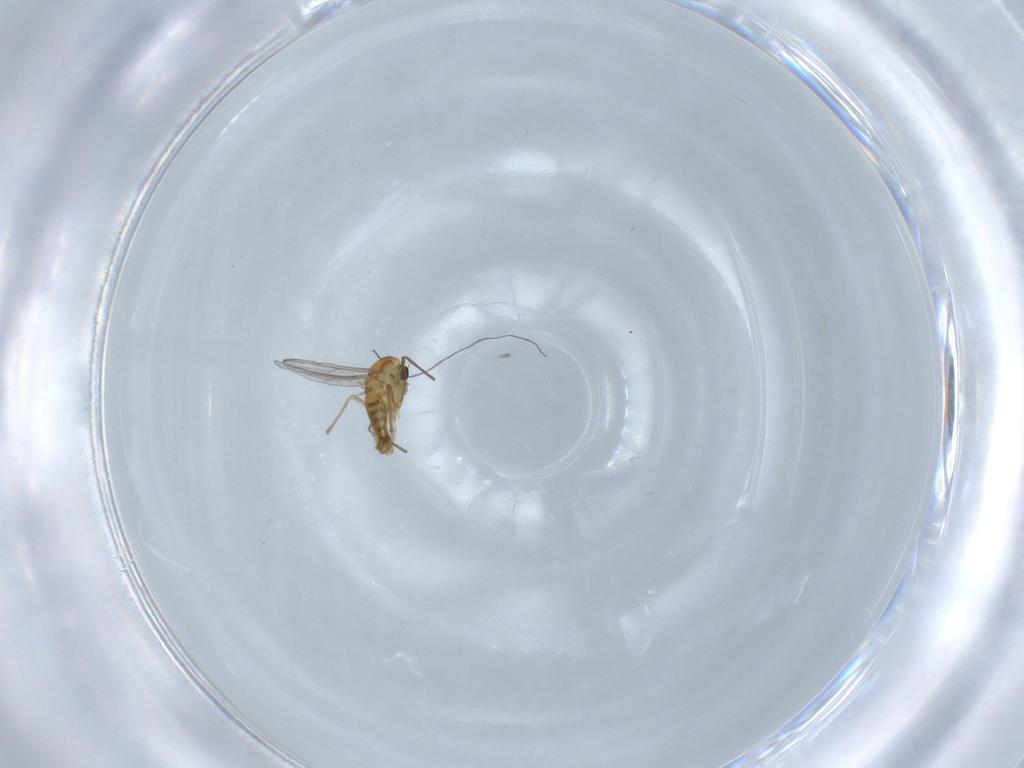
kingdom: Animalia
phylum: Arthropoda
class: Insecta
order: Diptera
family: Chironomidae
